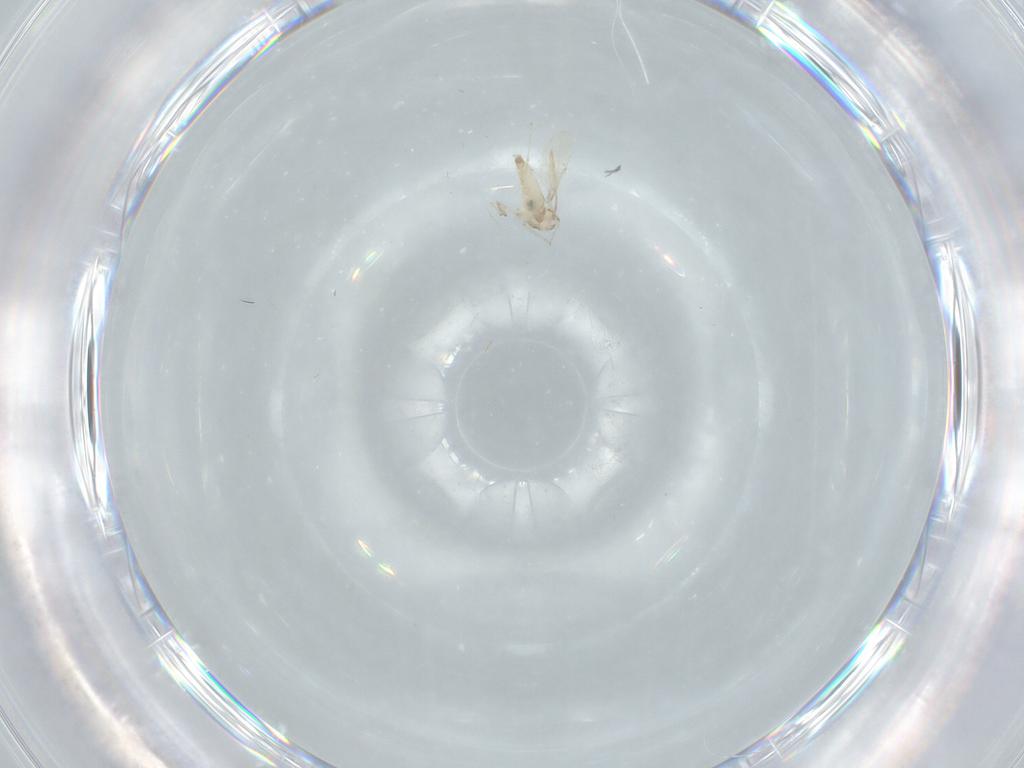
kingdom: Animalia
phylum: Arthropoda
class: Insecta
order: Diptera
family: Cecidomyiidae
